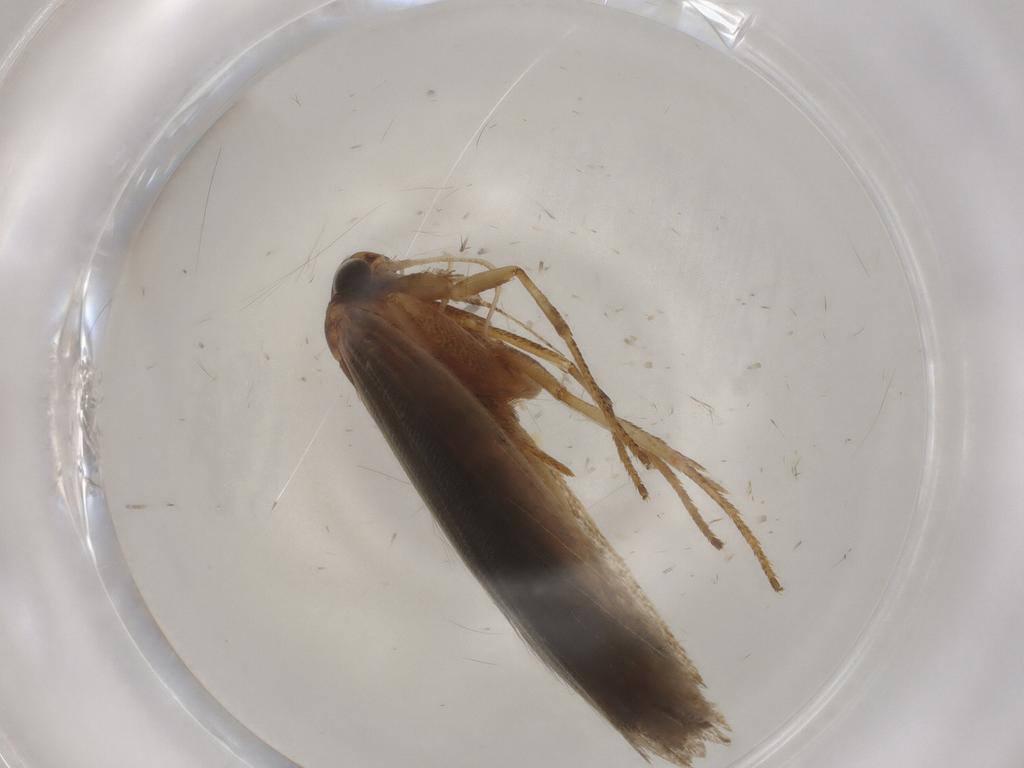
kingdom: Animalia
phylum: Arthropoda
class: Insecta
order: Lepidoptera
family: Gelechiidae
